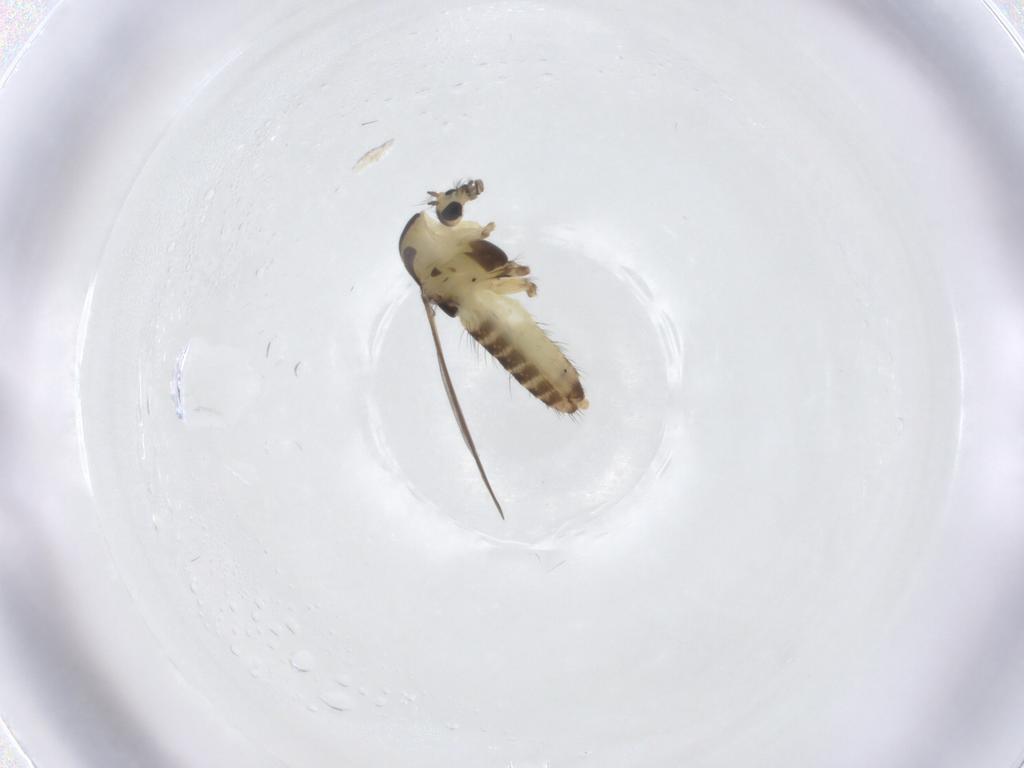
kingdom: Animalia
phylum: Arthropoda
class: Insecta
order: Diptera
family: Chironomidae
